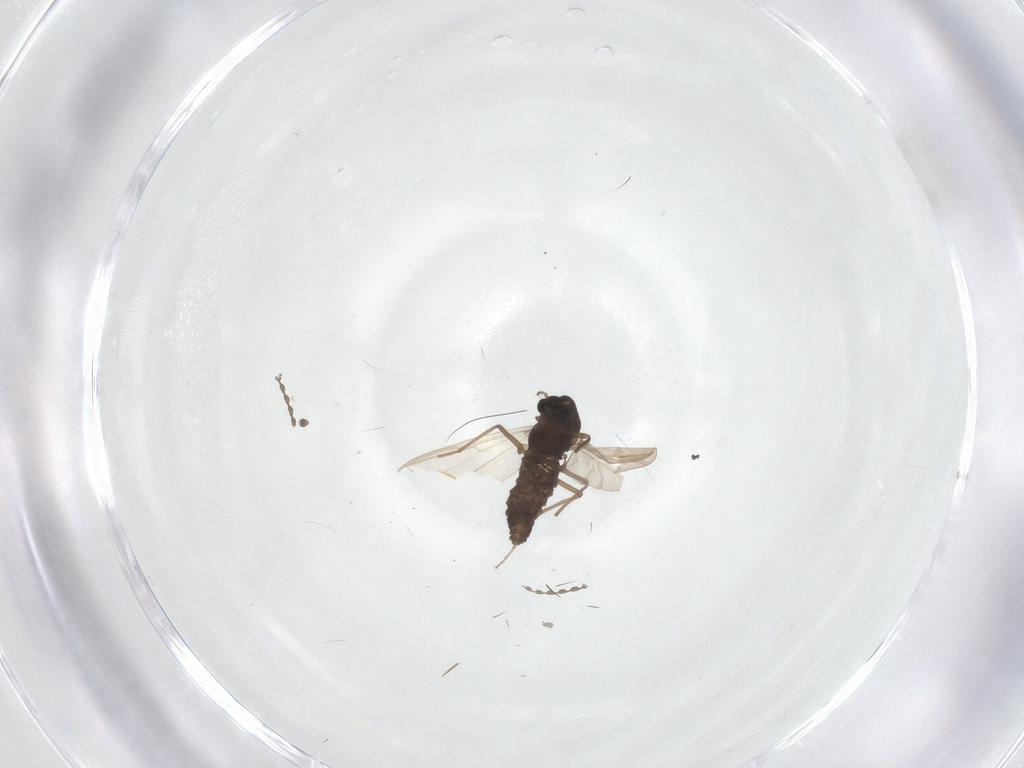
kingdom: Animalia
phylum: Arthropoda
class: Insecta
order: Diptera
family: Chironomidae
